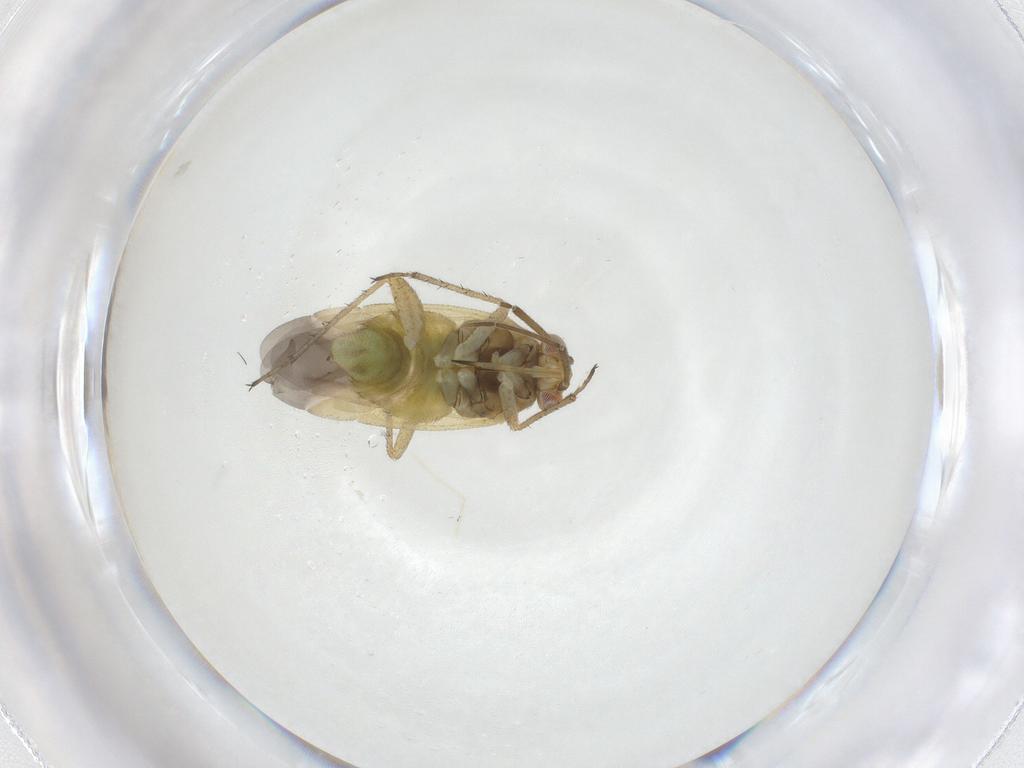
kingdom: Animalia
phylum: Arthropoda
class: Insecta
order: Hemiptera
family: Miridae
